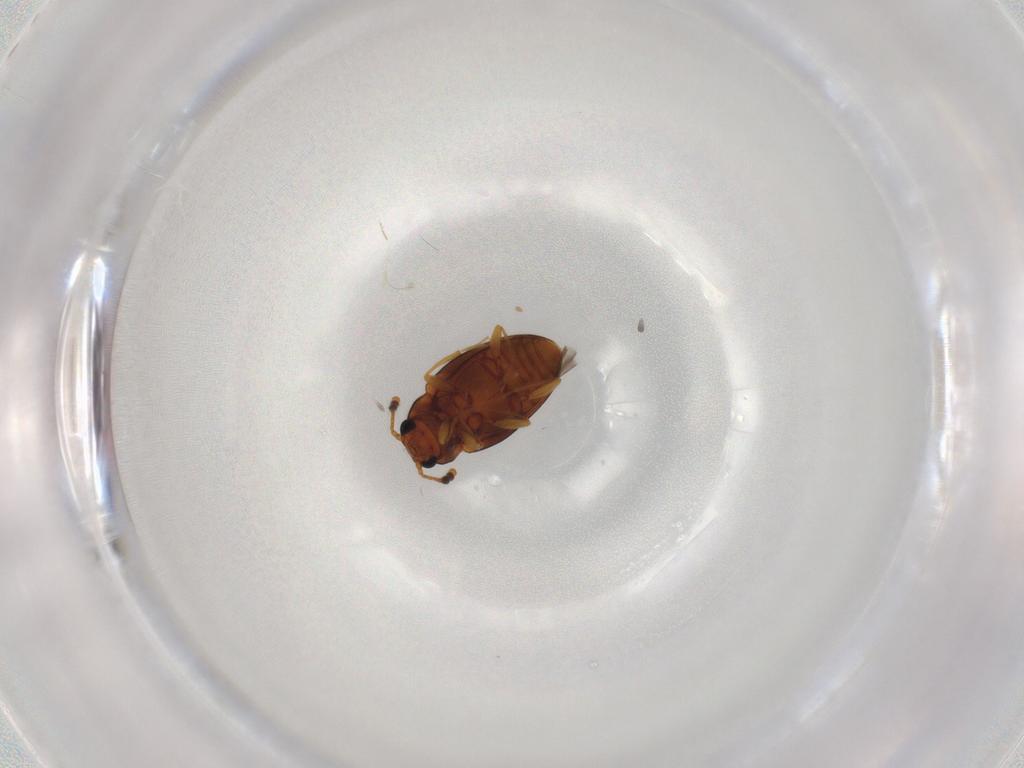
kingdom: Animalia
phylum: Arthropoda
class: Insecta
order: Coleoptera
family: Erotylidae
